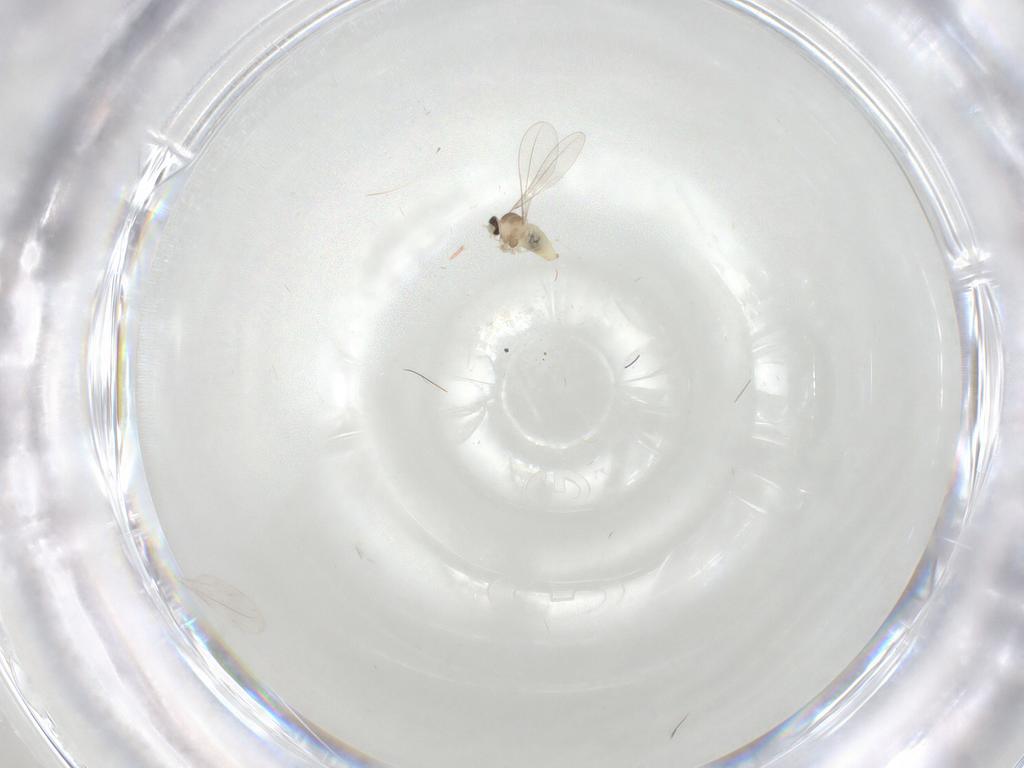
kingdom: Animalia
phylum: Arthropoda
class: Insecta
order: Diptera
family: Cecidomyiidae
